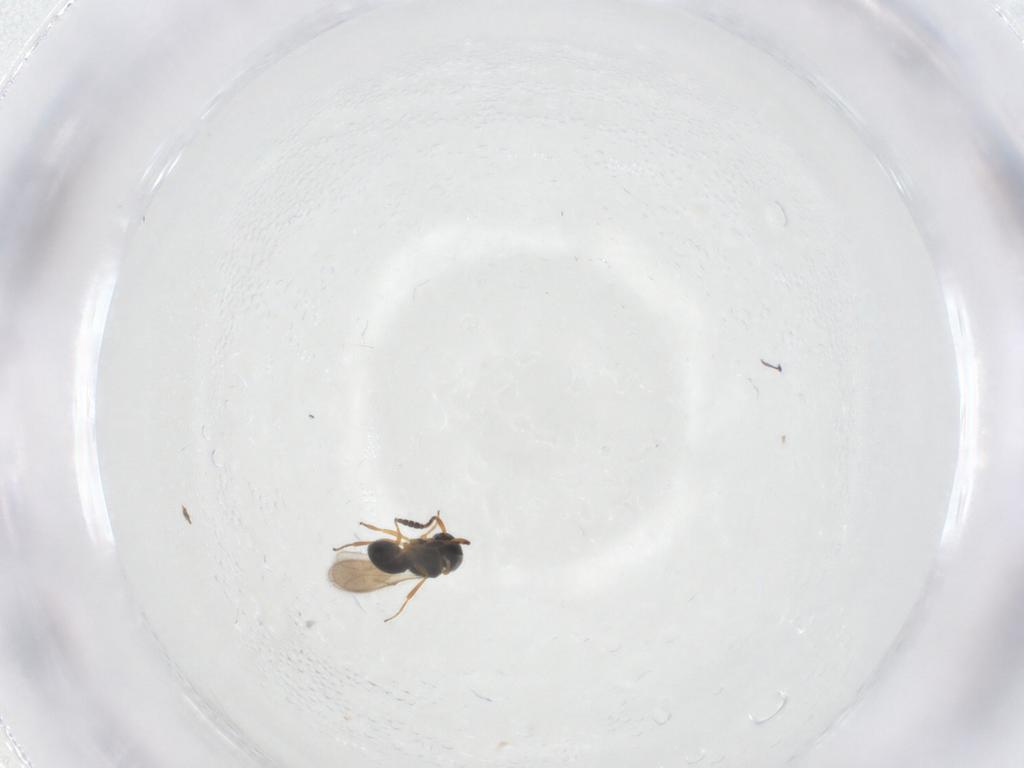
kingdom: Animalia
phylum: Arthropoda
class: Insecta
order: Hymenoptera
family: Scelionidae
